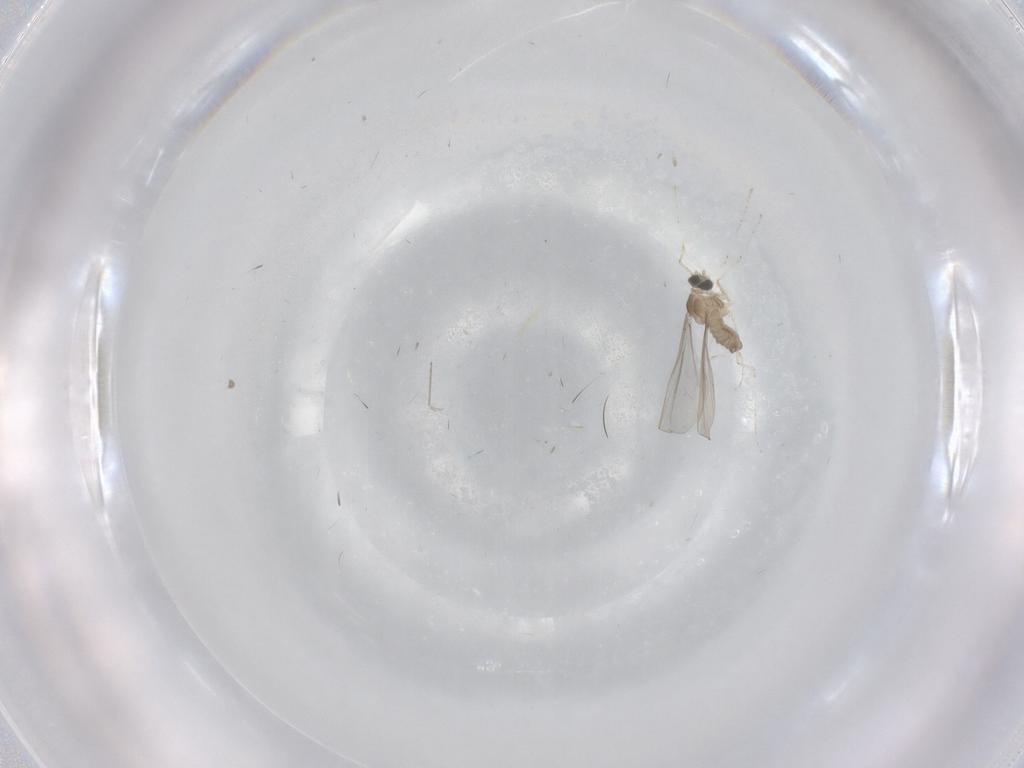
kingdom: Animalia
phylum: Arthropoda
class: Insecta
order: Diptera
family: Cecidomyiidae
